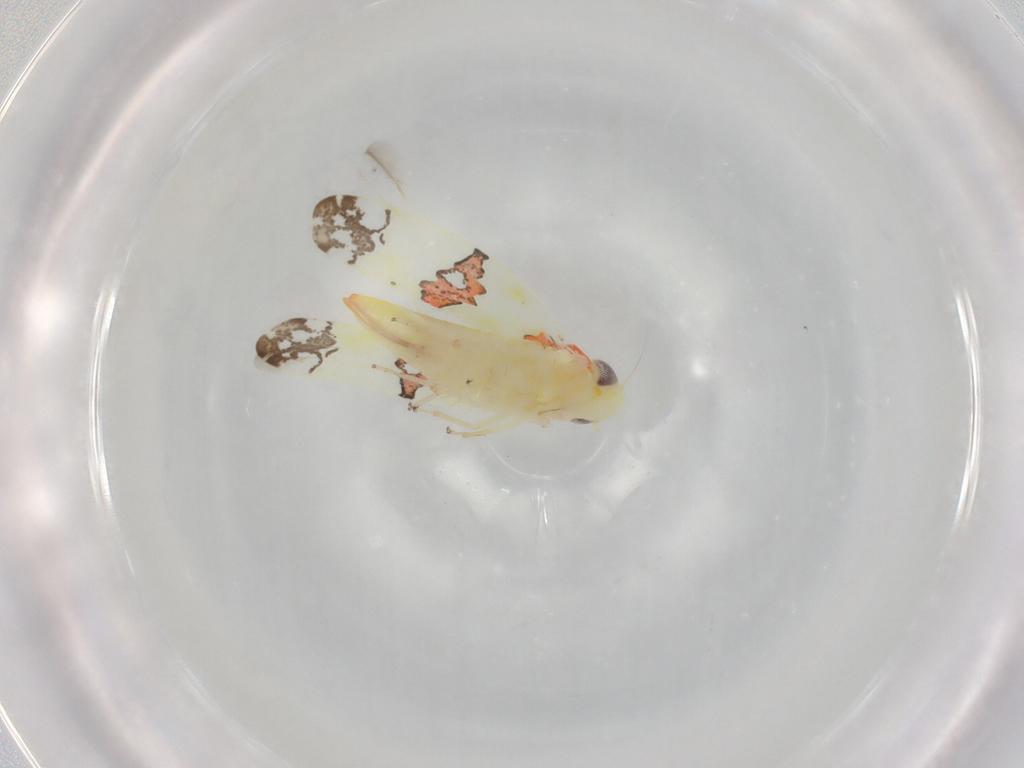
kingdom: Animalia
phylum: Arthropoda
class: Insecta
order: Hemiptera
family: Cicadellidae
